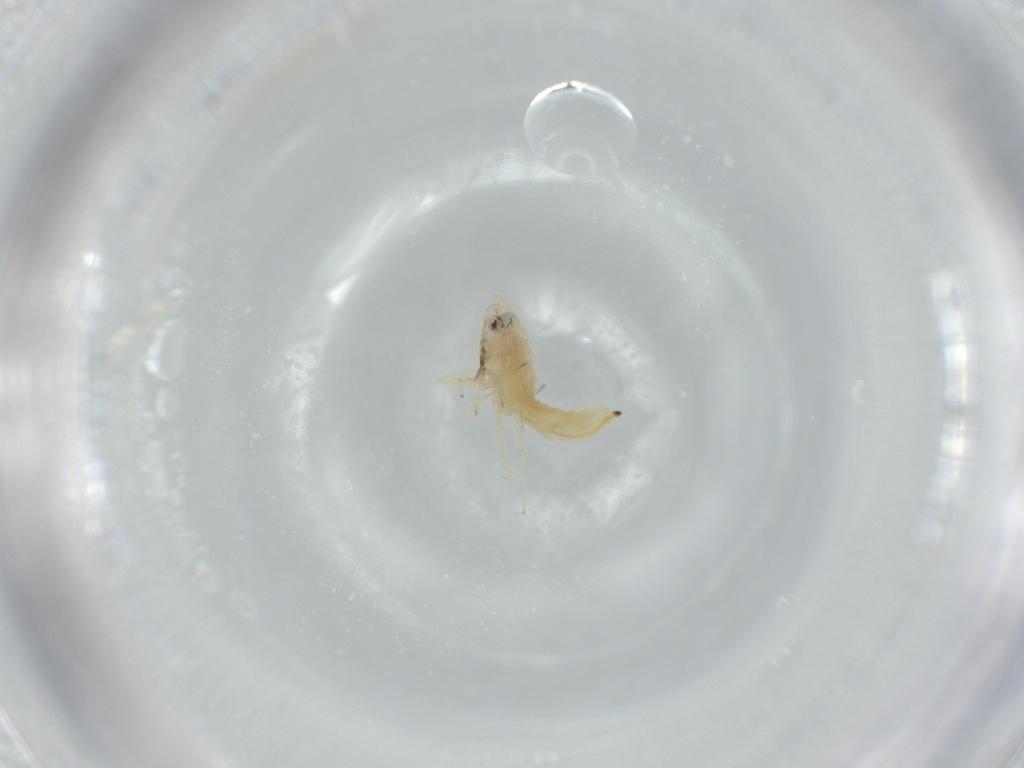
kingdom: Animalia
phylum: Arthropoda
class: Insecta
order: Hemiptera
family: Cicadellidae
